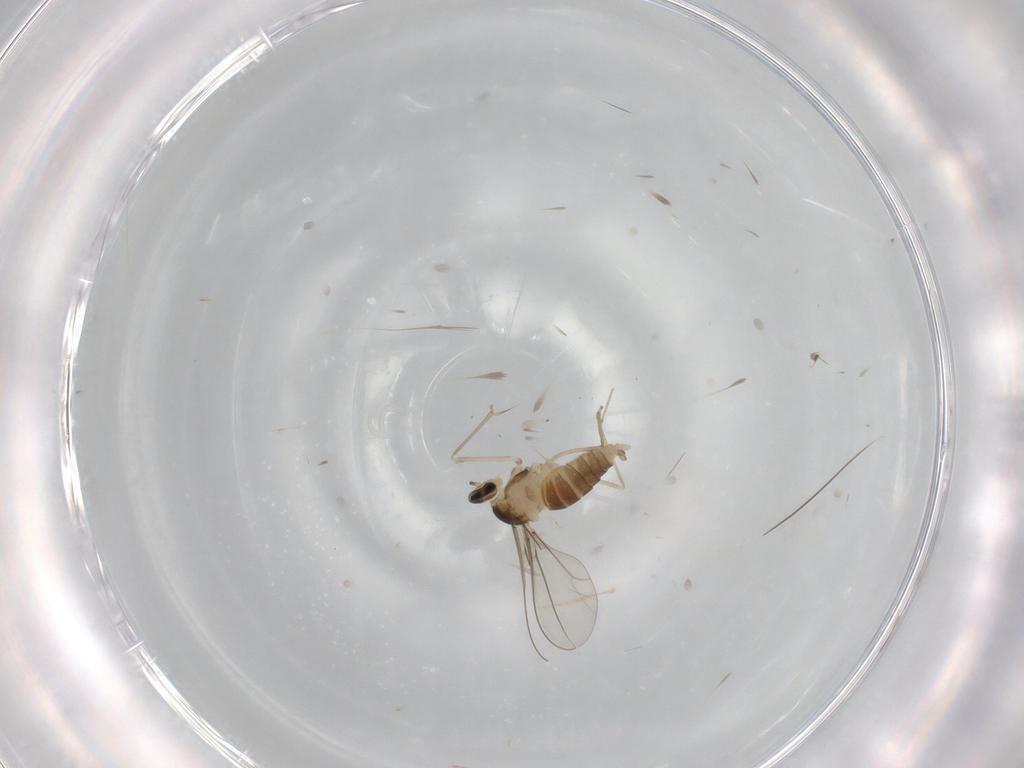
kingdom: Animalia
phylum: Arthropoda
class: Insecta
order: Diptera
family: Cecidomyiidae
